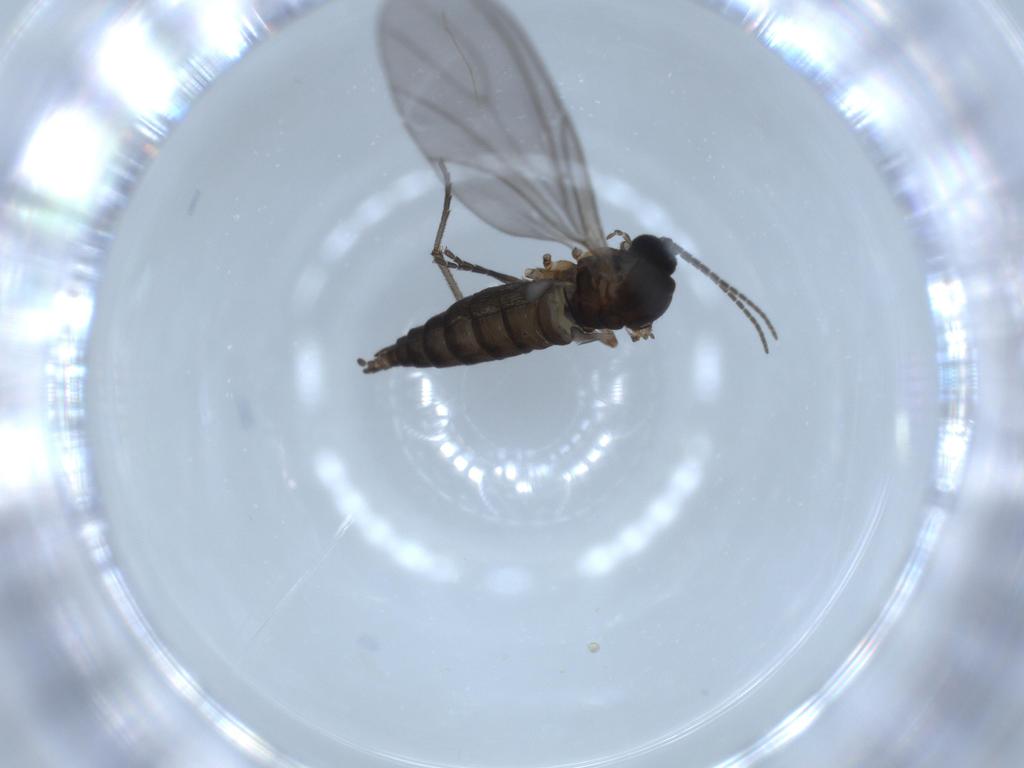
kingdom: Animalia
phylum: Arthropoda
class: Insecta
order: Diptera
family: Sciaridae
